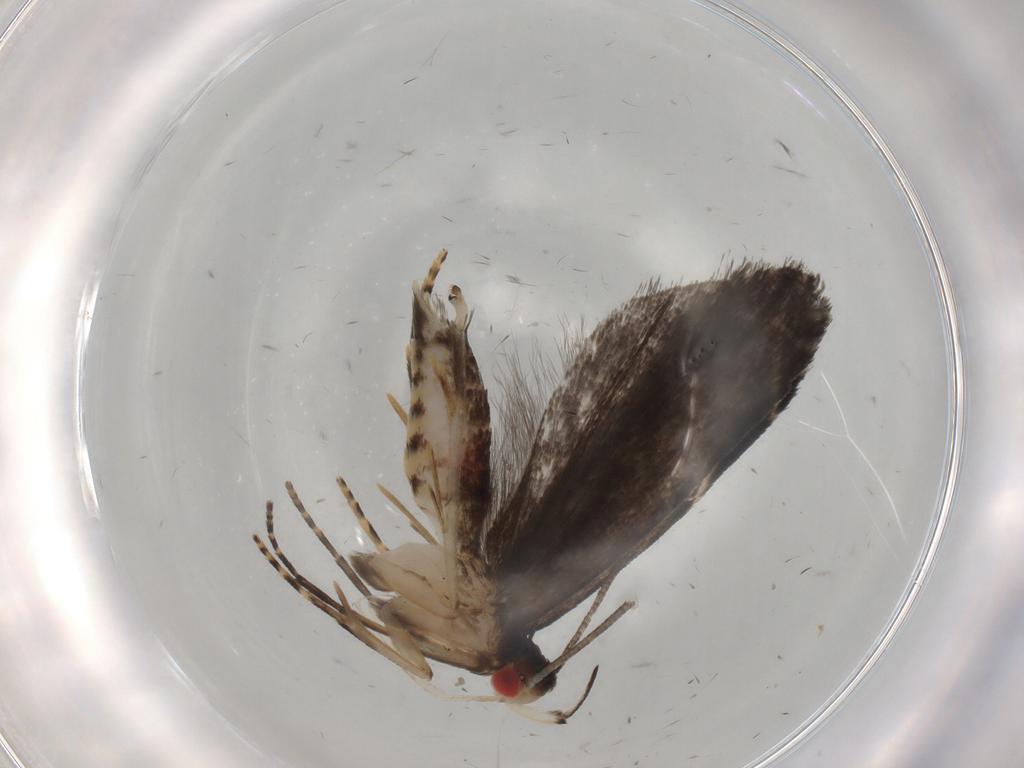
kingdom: Animalia
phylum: Arthropoda
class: Insecta
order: Lepidoptera
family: Gelechiidae
